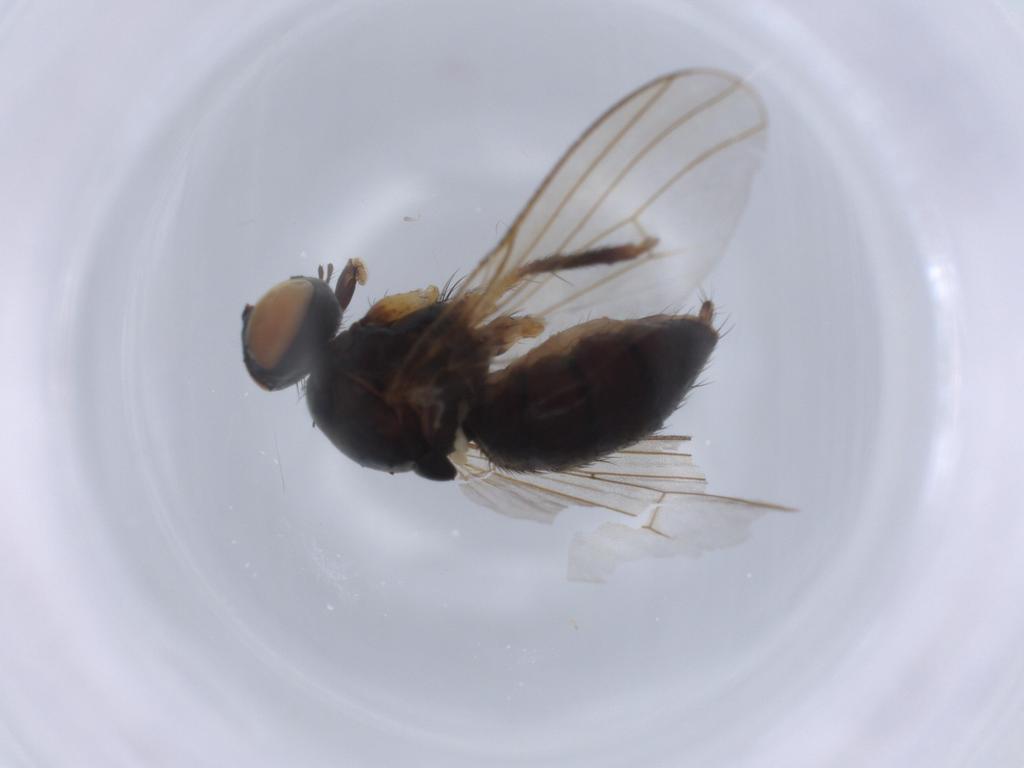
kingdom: Animalia
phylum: Arthropoda
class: Insecta
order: Diptera
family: Cecidomyiidae
